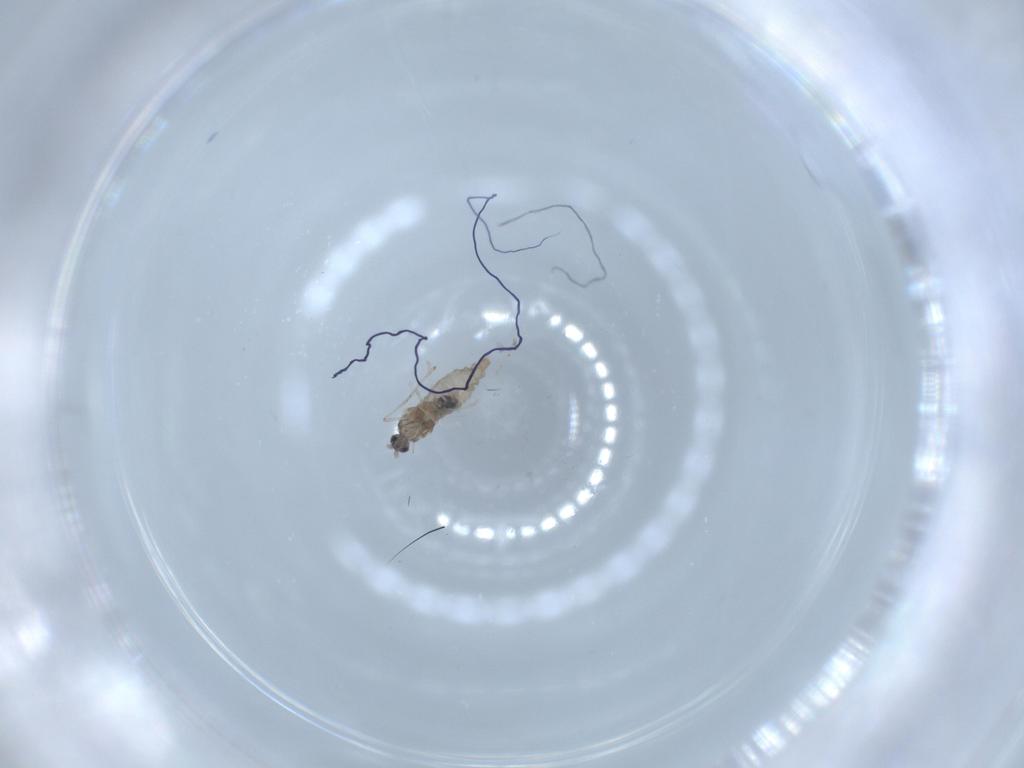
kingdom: Animalia
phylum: Arthropoda
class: Insecta
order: Diptera
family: Cecidomyiidae
